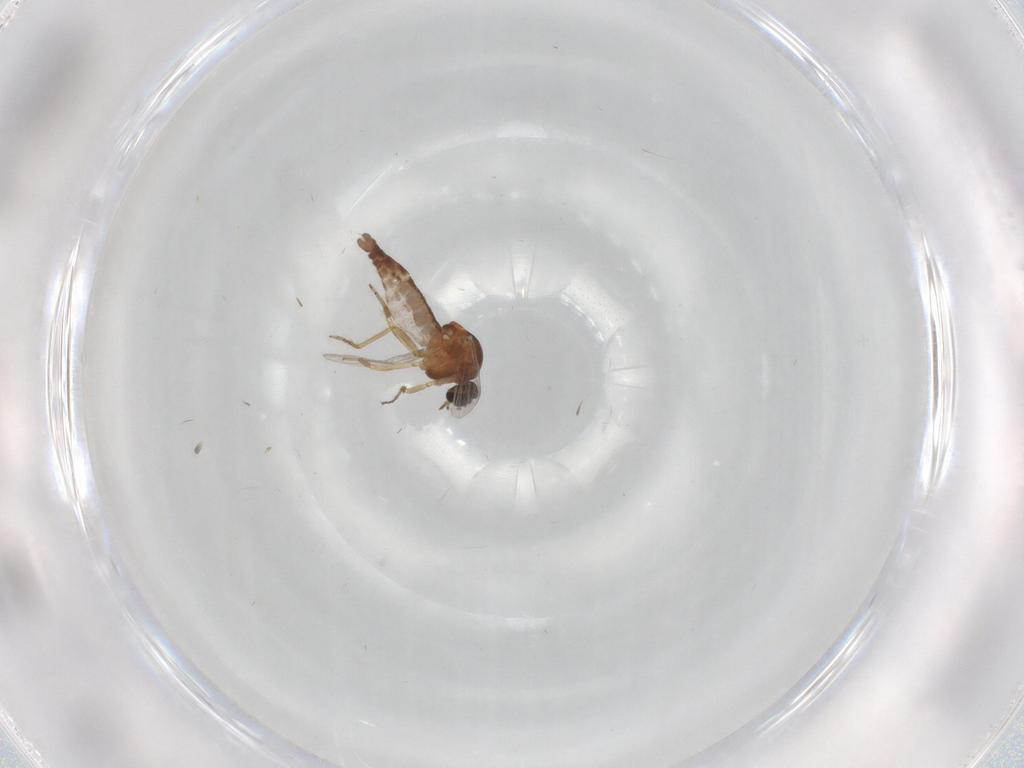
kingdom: Animalia
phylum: Arthropoda
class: Insecta
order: Diptera
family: Ceratopogonidae
